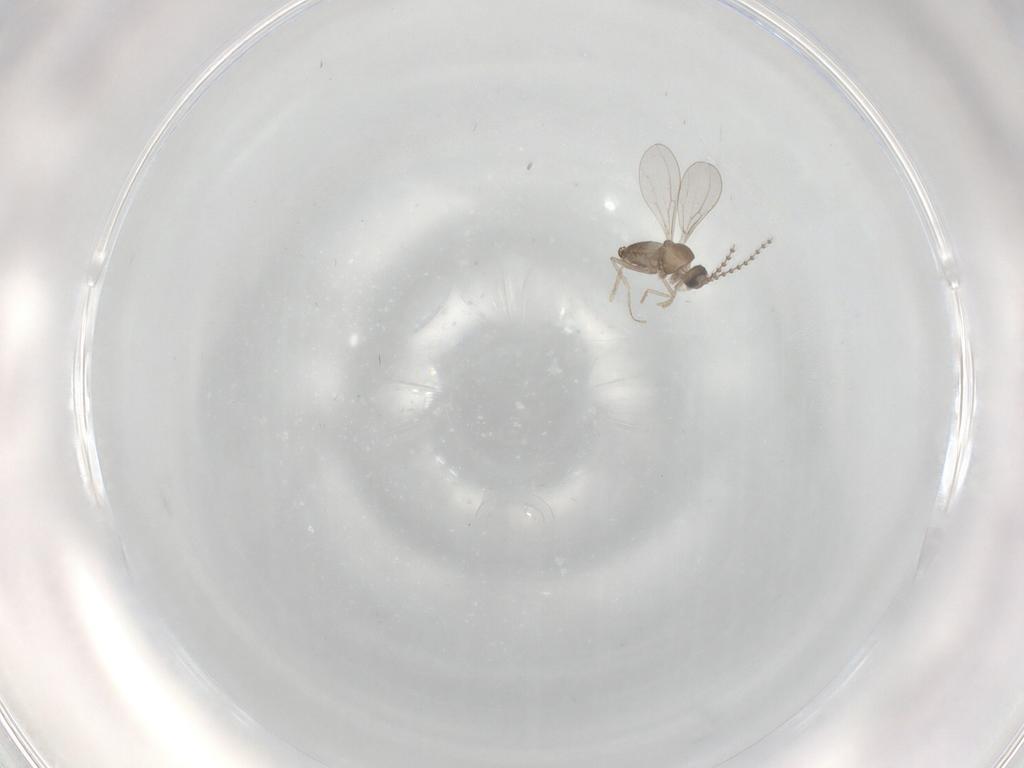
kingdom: Animalia
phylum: Arthropoda
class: Insecta
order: Diptera
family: Cecidomyiidae
